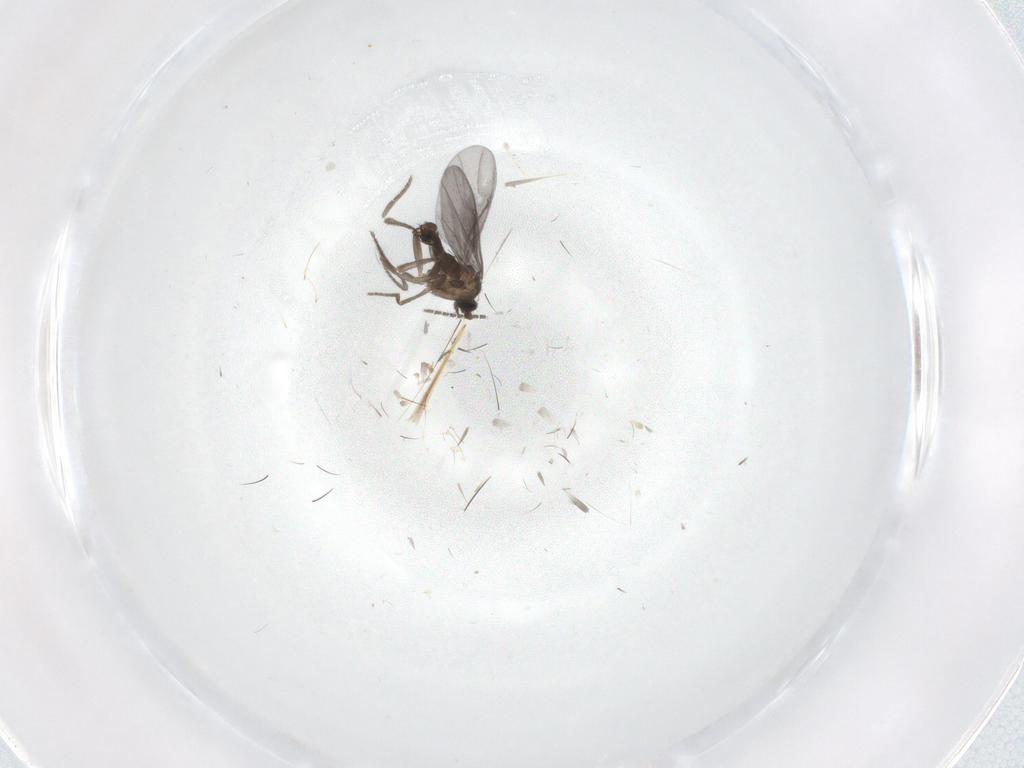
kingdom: Animalia
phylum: Arthropoda
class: Insecta
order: Diptera
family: Phoridae
